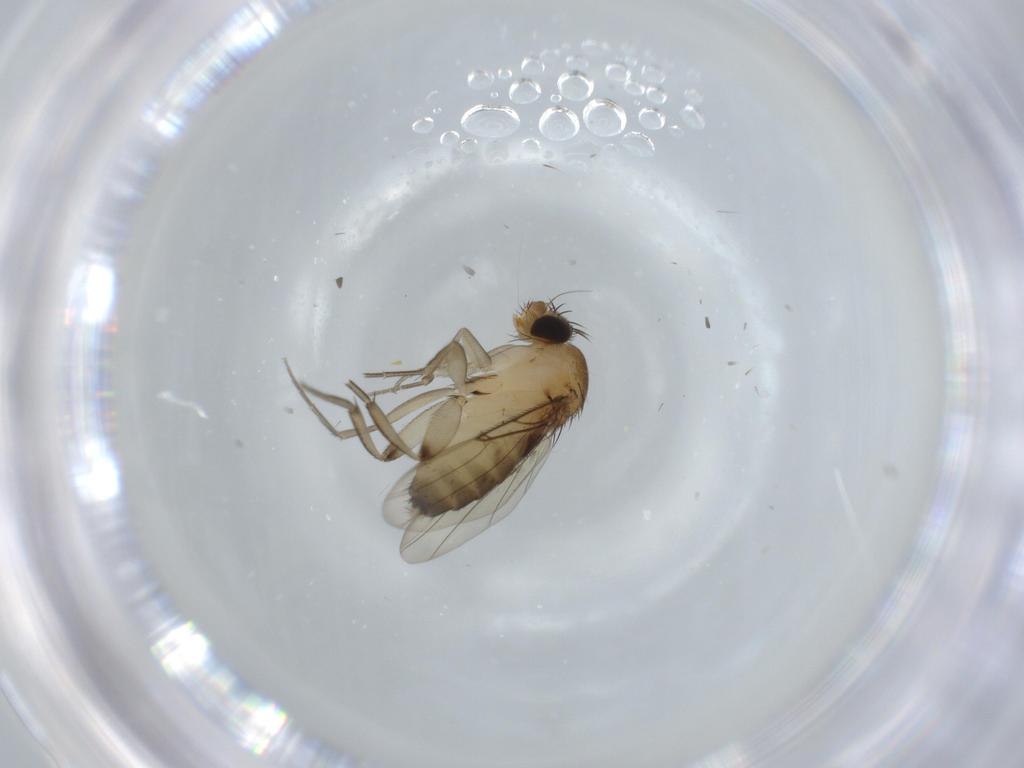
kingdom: Animalia
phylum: Arthropoda
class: Insecta
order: Diptera
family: Phoridae
